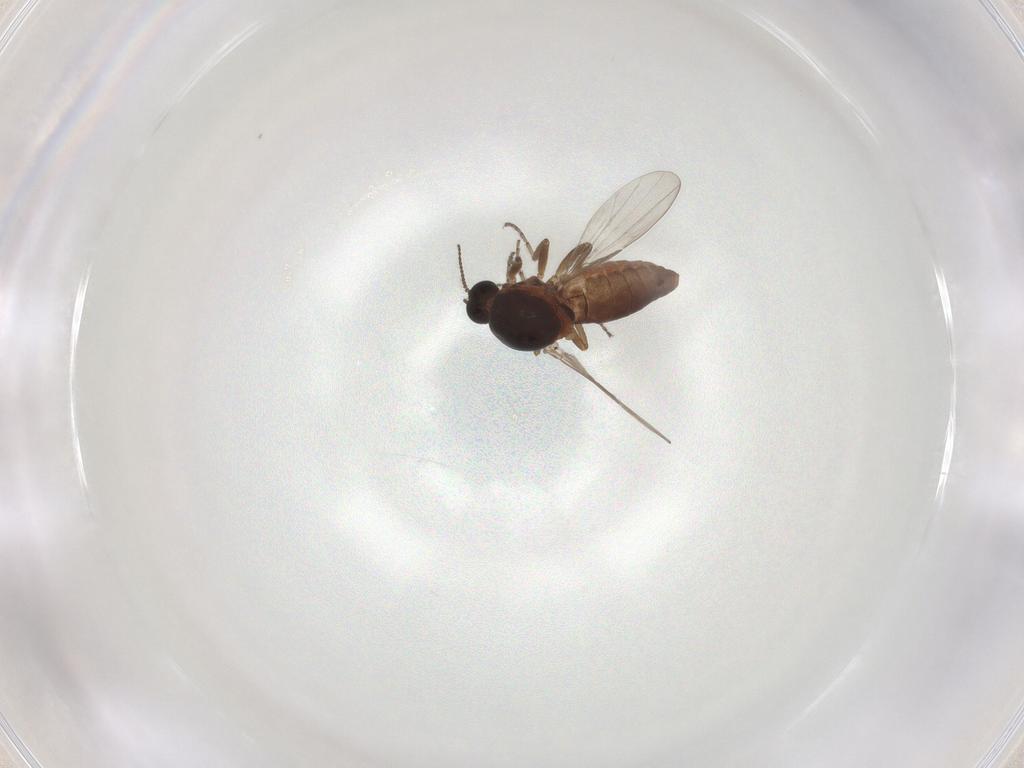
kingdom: Animalia
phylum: Arthropoda
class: Insecta
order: Diptera
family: Ceratopogonidae
